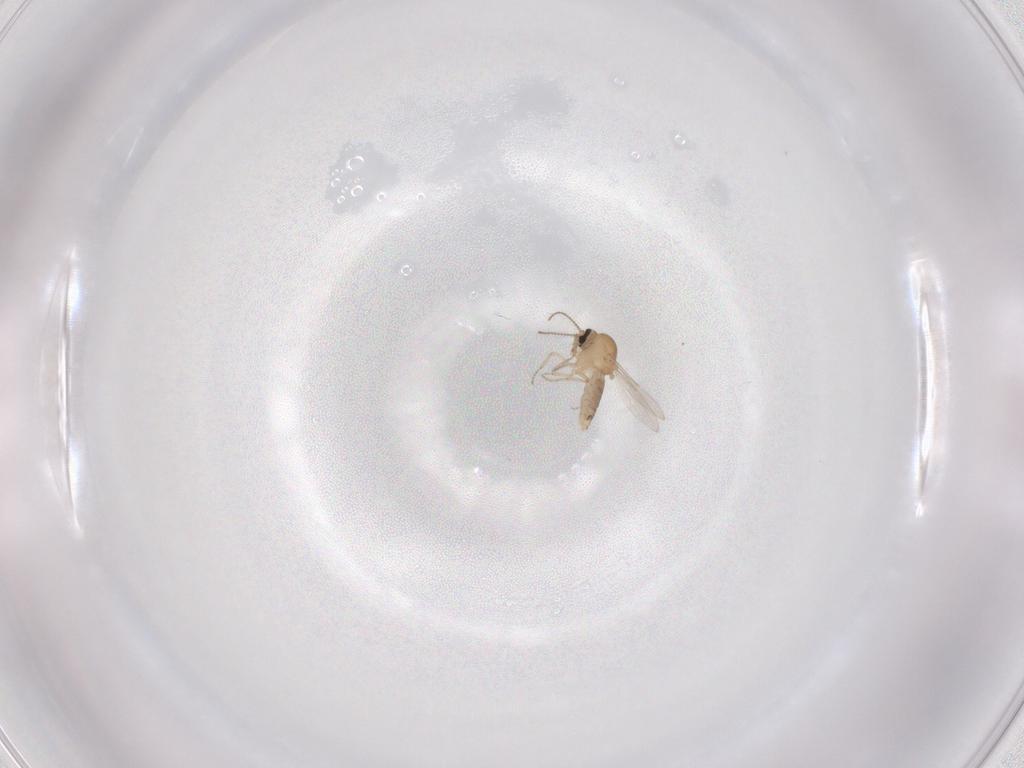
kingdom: Animalia
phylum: Arthropoda
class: Insecta
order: Diptera
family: Ceratopogonidae
